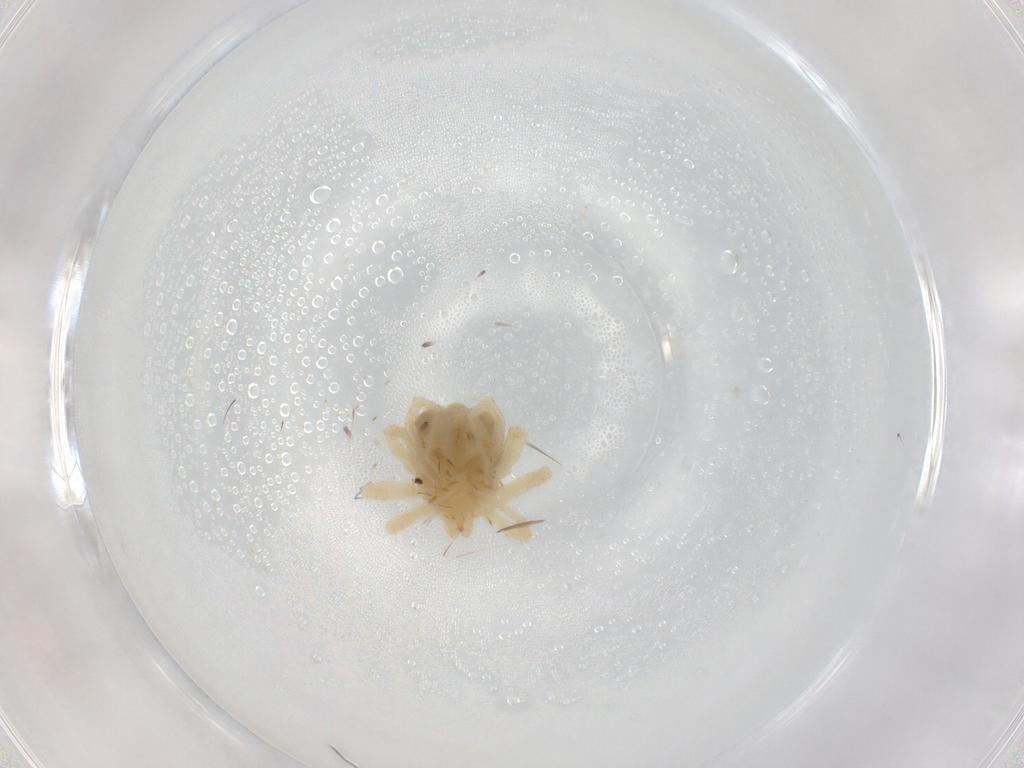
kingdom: Animalia
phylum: Arthropoda
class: Arachnida
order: Trombidiformes
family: Anystidae
